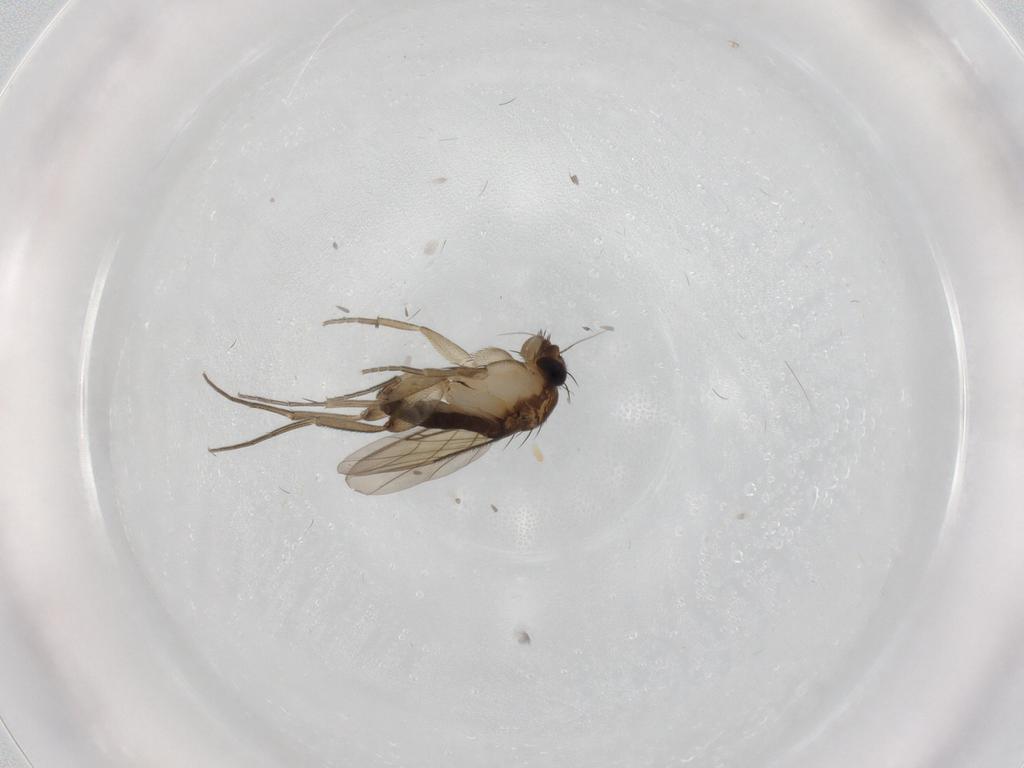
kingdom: Animalia
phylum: Arthropoda
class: Insecta
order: Diptera
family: Phoridae
